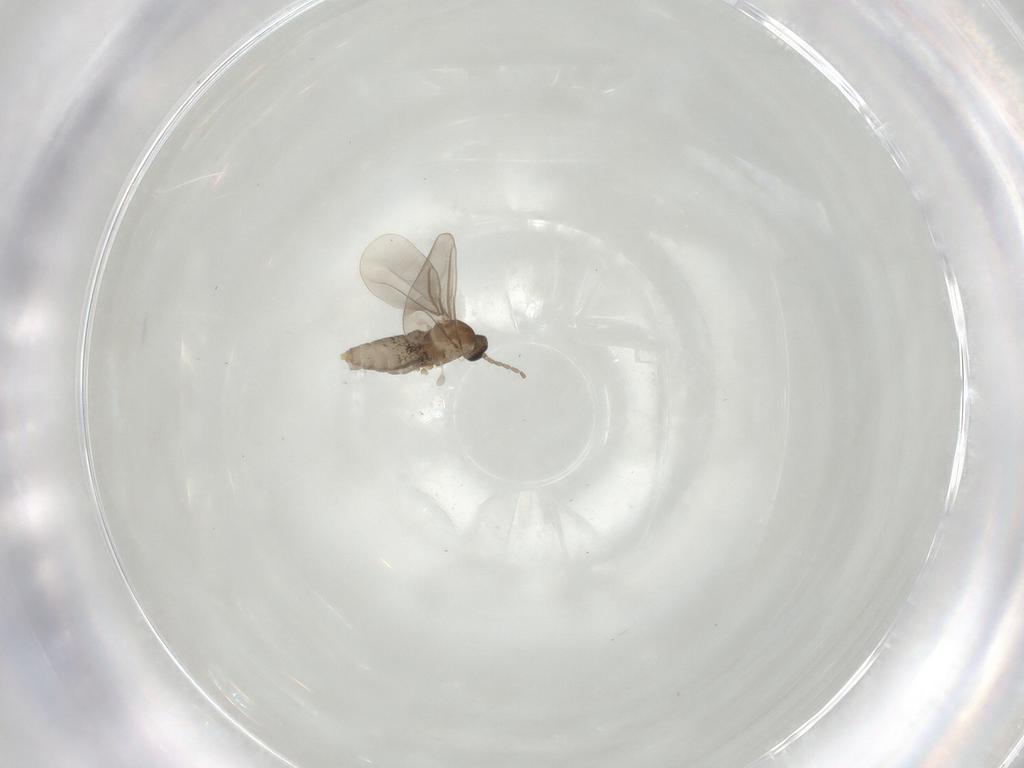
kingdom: Animalia
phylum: Arthropoda
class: Insecta
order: Diptera
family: Cecidomyiidae
